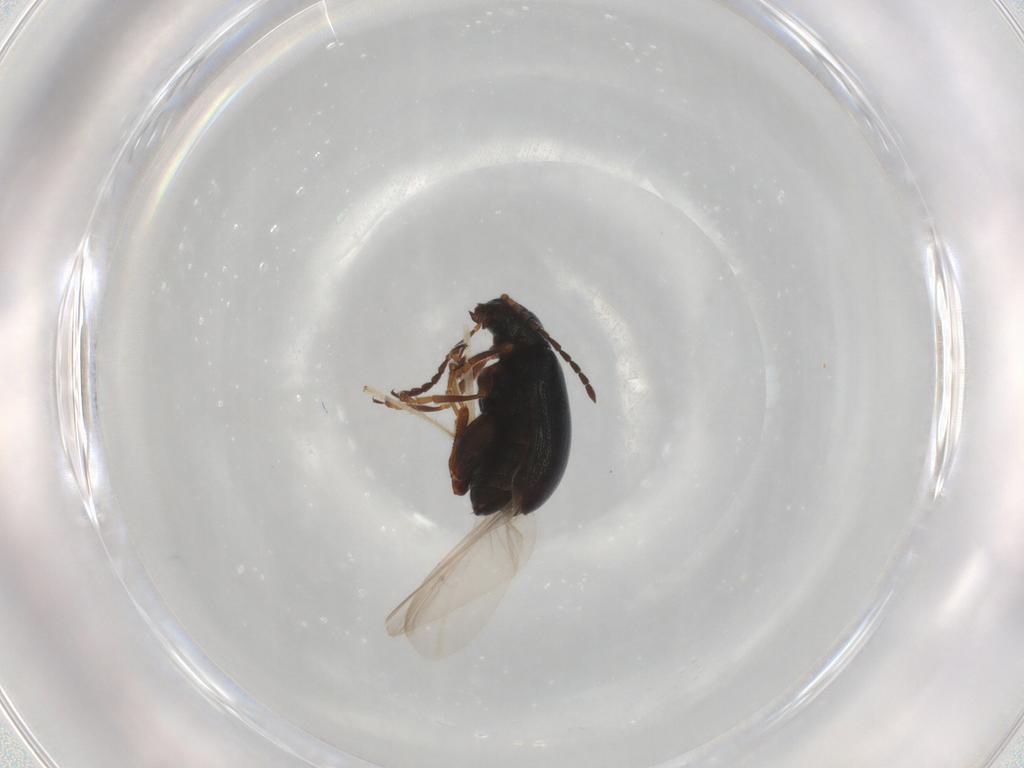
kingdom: Animalia
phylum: Arthropoda
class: Insecta
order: Coleoptera
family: Chrysomelidae
